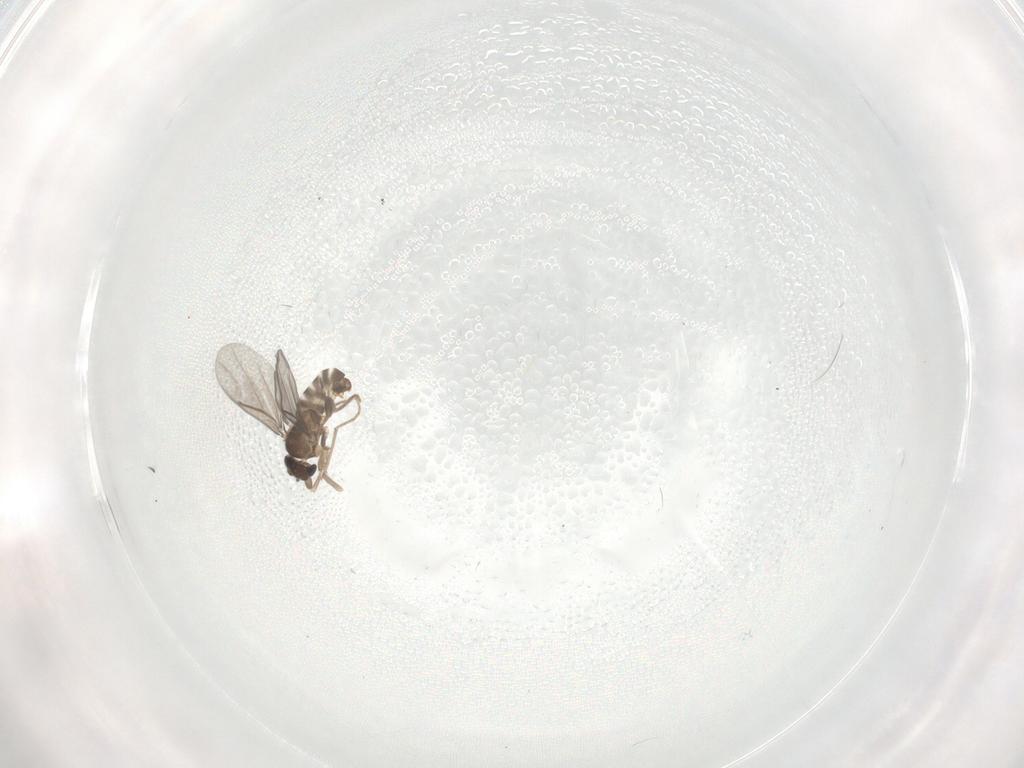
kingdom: Animalia
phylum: Arthropoda
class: Insecta
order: Diptera
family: Chironomidae
